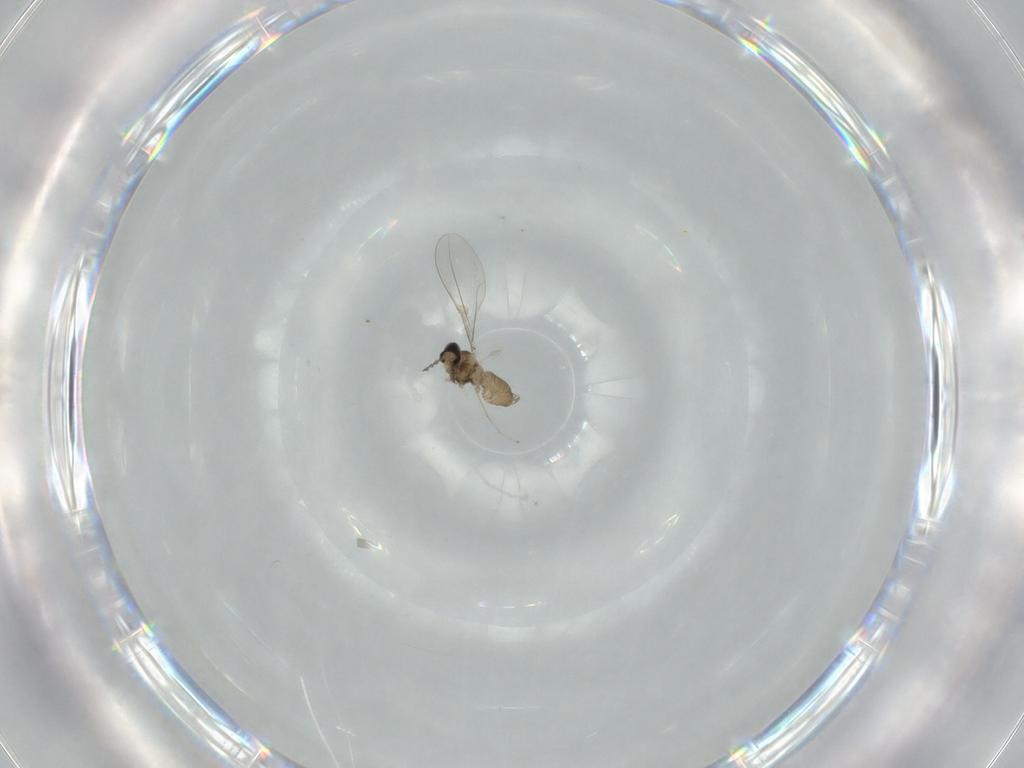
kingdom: Animalia
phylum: Arthropoda
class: Insecta
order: Diptera
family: Cecidomyiidae
